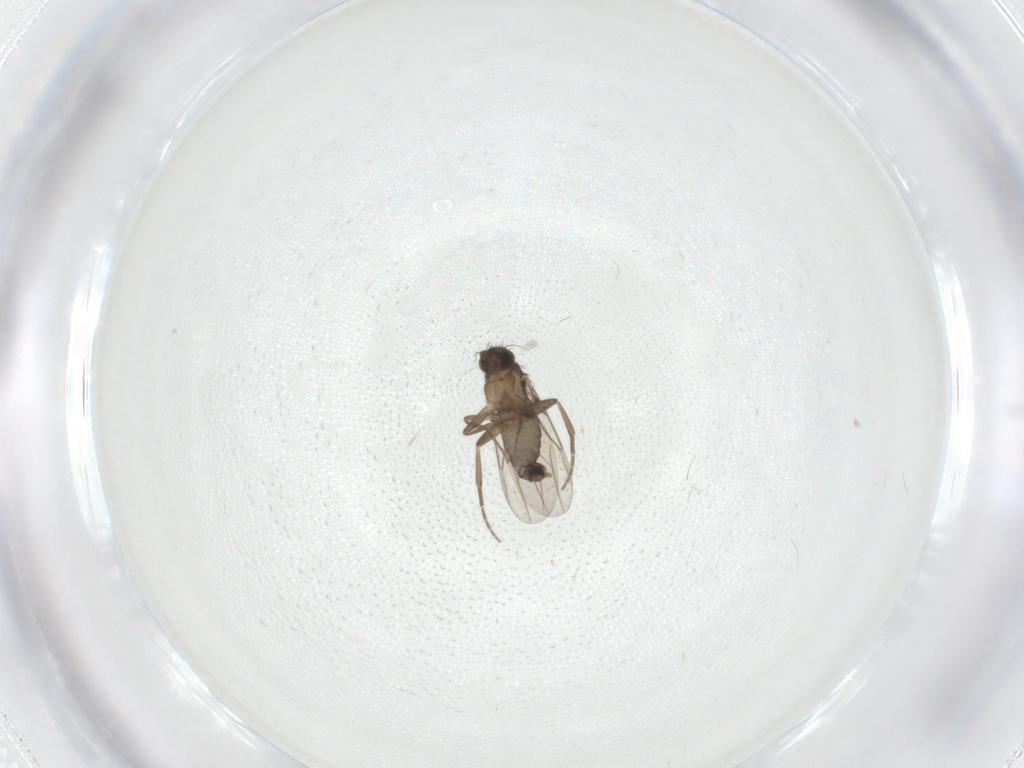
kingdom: Animalia
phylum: Arthropoda
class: Insecta
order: Diptera
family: Phoridae
